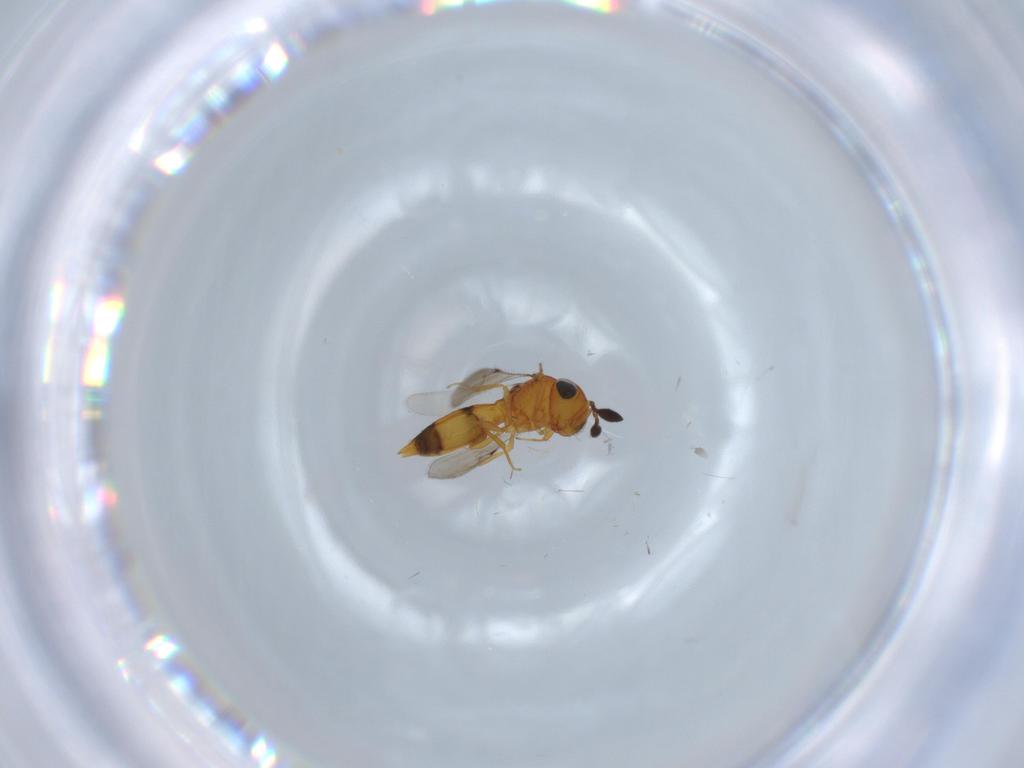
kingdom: Animalia
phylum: Arthropoda
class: Insecta
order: Hymenoptera
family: Scelionidae
